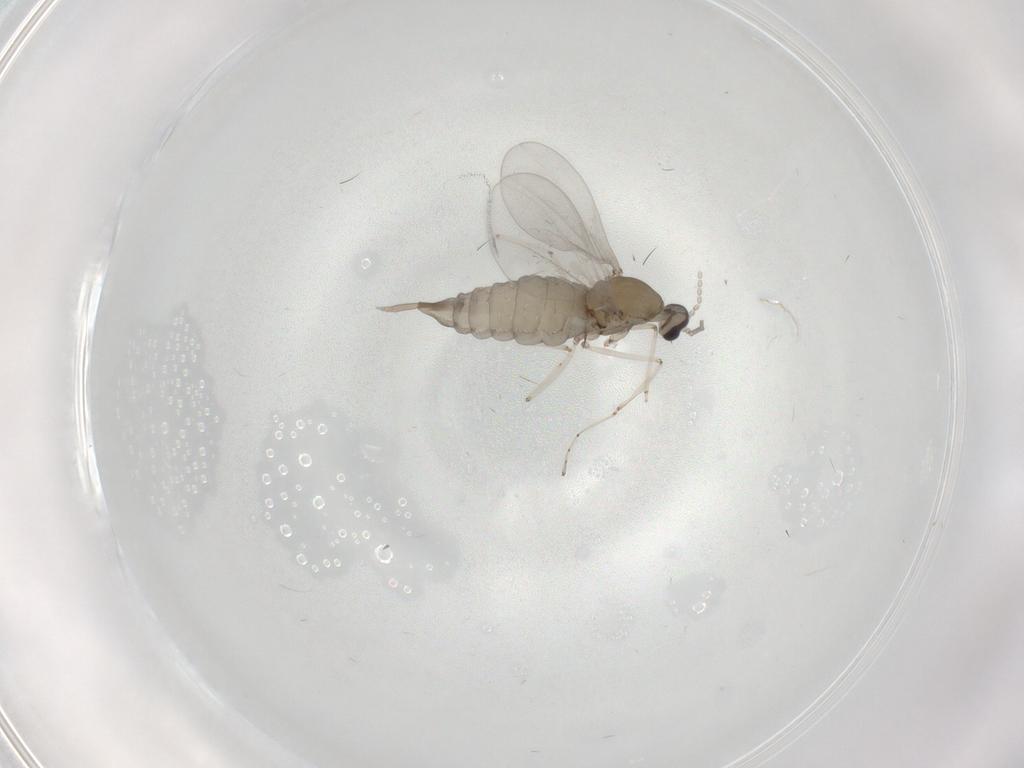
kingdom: Animalia
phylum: Arthropoda
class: Insecta
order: Diptera
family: Cecidomyiidae
